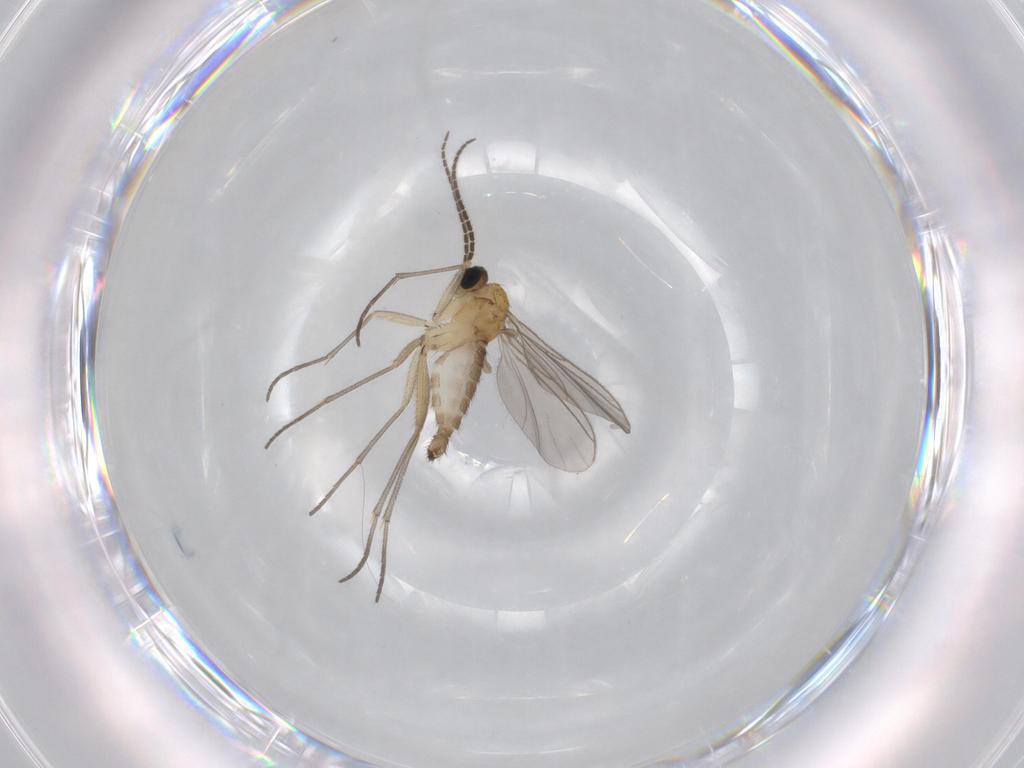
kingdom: Animalia
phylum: Arthropoda
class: Insecta
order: Diptera
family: Sciaridae
